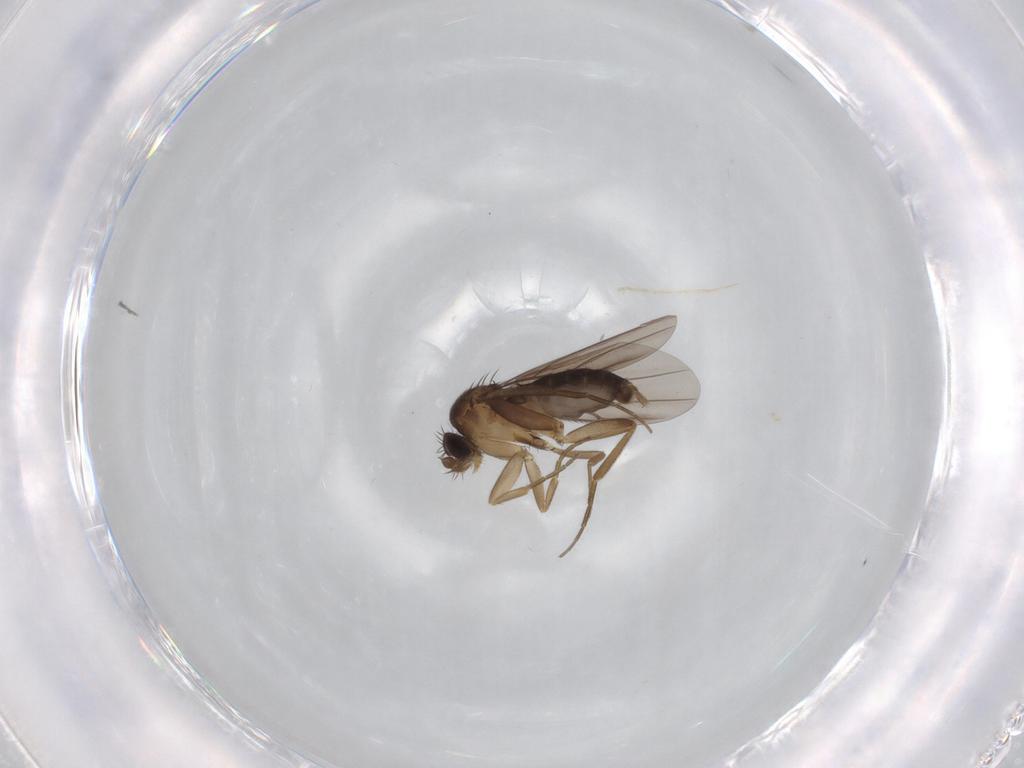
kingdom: Animalia
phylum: Arthropoda
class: Insecta
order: Diptera
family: Phoridae
